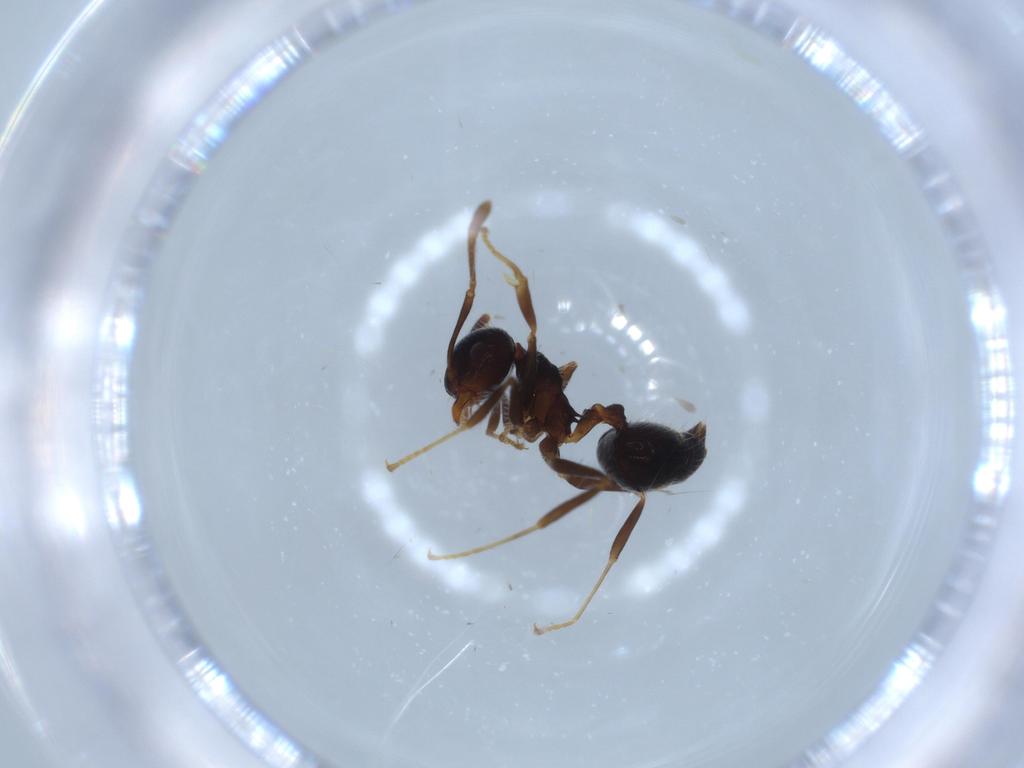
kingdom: Animalia
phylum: Arthropoda
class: Insecta
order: Hymenoptera
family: Formicidae
